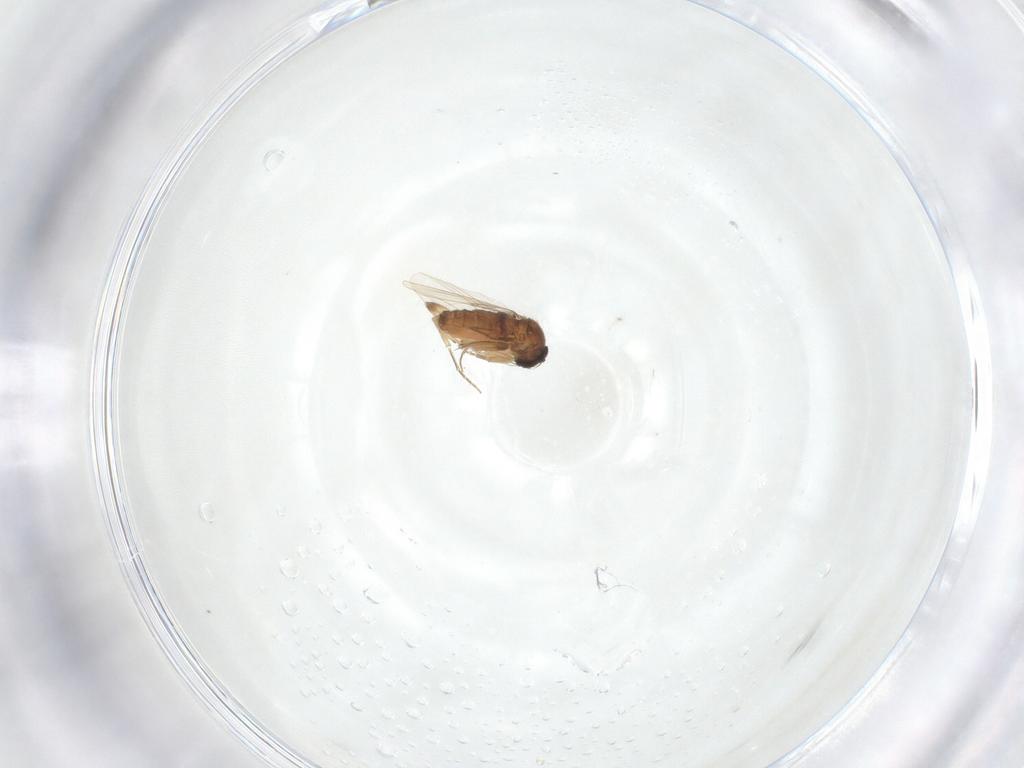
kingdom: Animalia
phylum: Arthropoda
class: Insecta
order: Diptera
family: Phoridae
